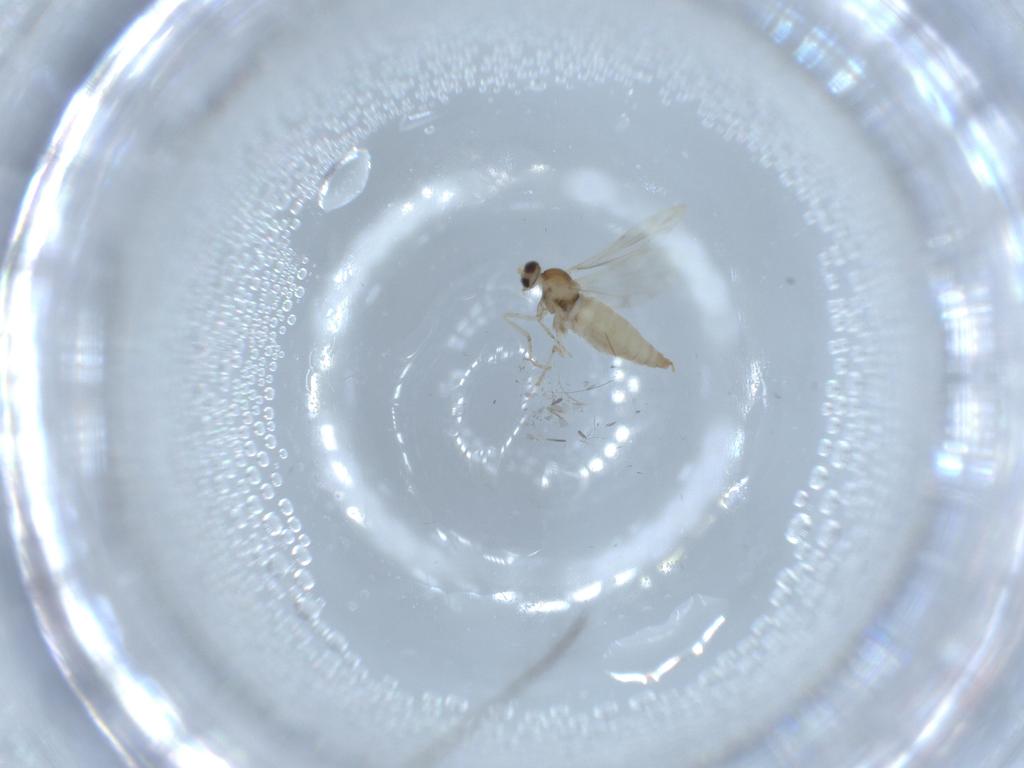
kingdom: Animalia
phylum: Arthropoda
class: Insecta
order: Diptera
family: Cecidomyiidae
